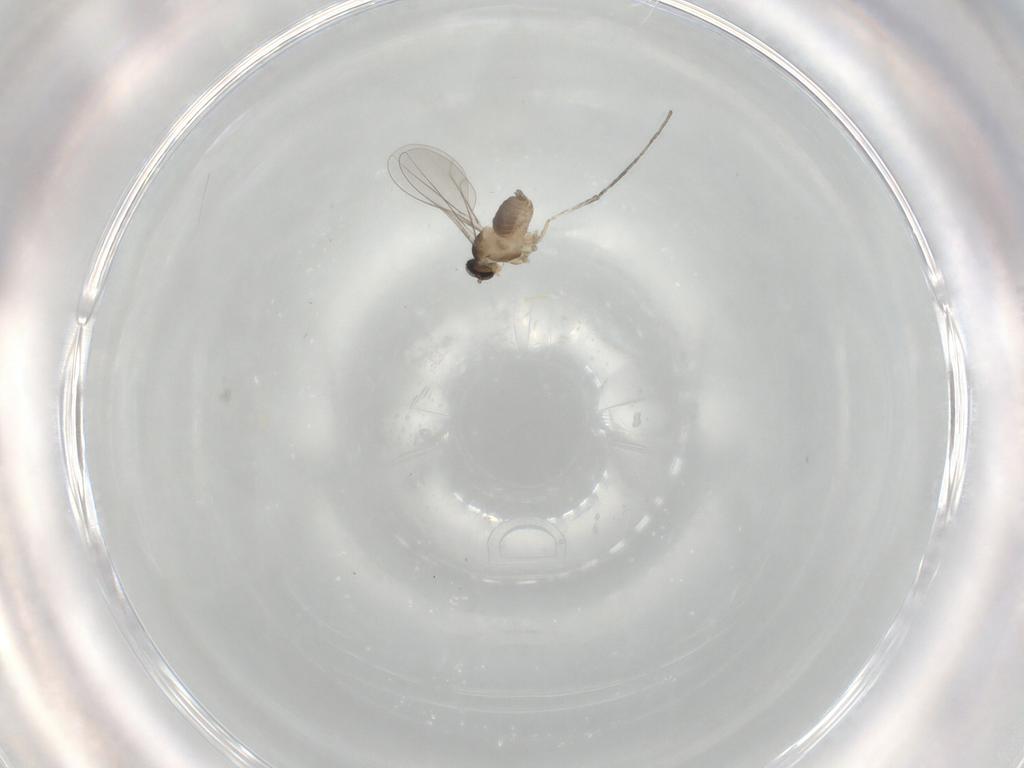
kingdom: Animalia
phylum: Arthropoda
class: Insecta
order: Diptera
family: Cecidomyiidae
